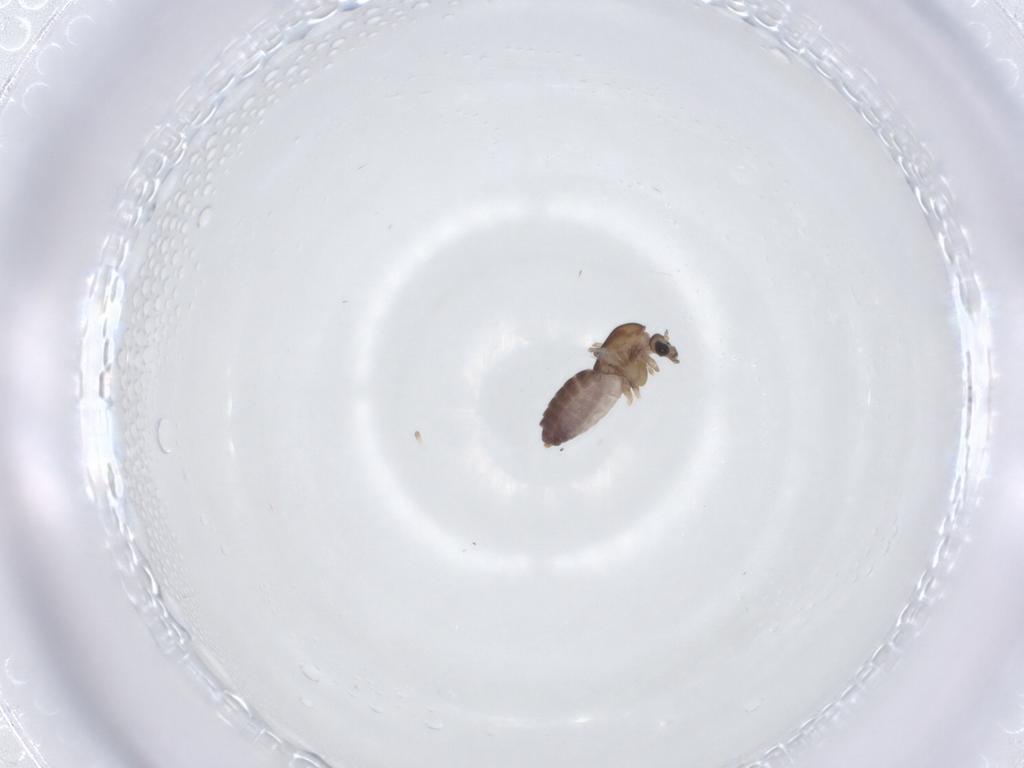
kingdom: Animalia
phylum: Arthropoda
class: Insecta
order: Diptera
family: Chironomidae
